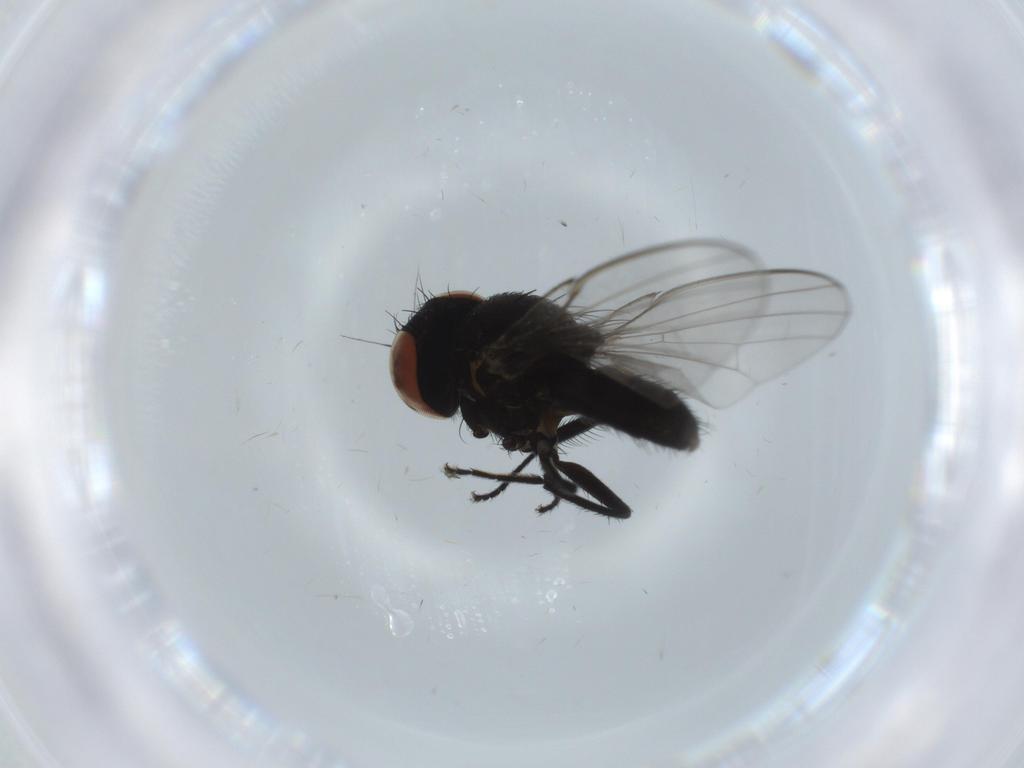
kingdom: Animalia
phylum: Arthropoda
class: Insecta
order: Diptera
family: Milichiidae
